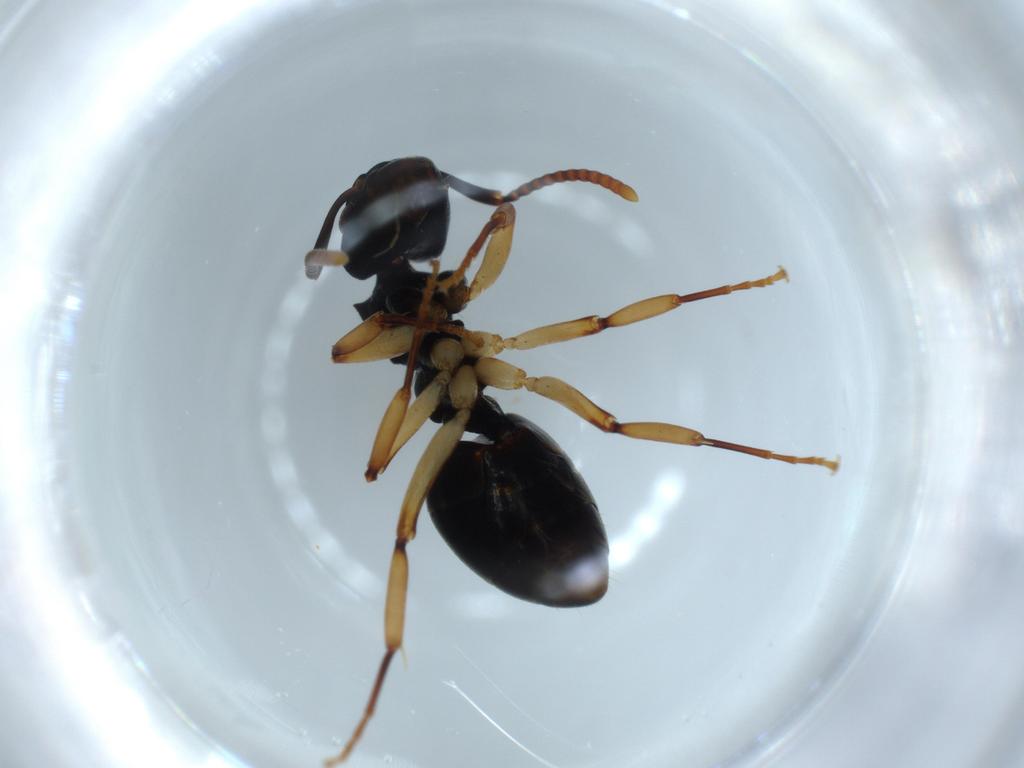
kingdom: Animalia
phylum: Arthropoda
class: Insecta
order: Hymenoptera
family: Formicidae
